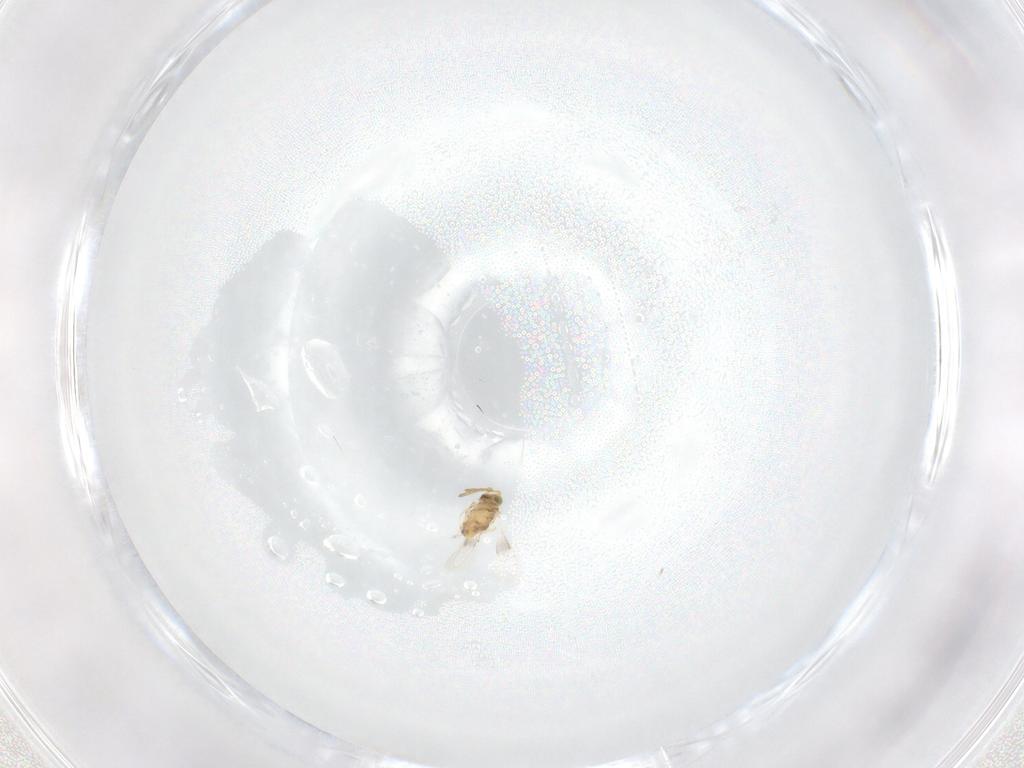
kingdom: Animalia
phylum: Arthropoda
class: Insecta
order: Hymenoptera
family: Aphelinidae
